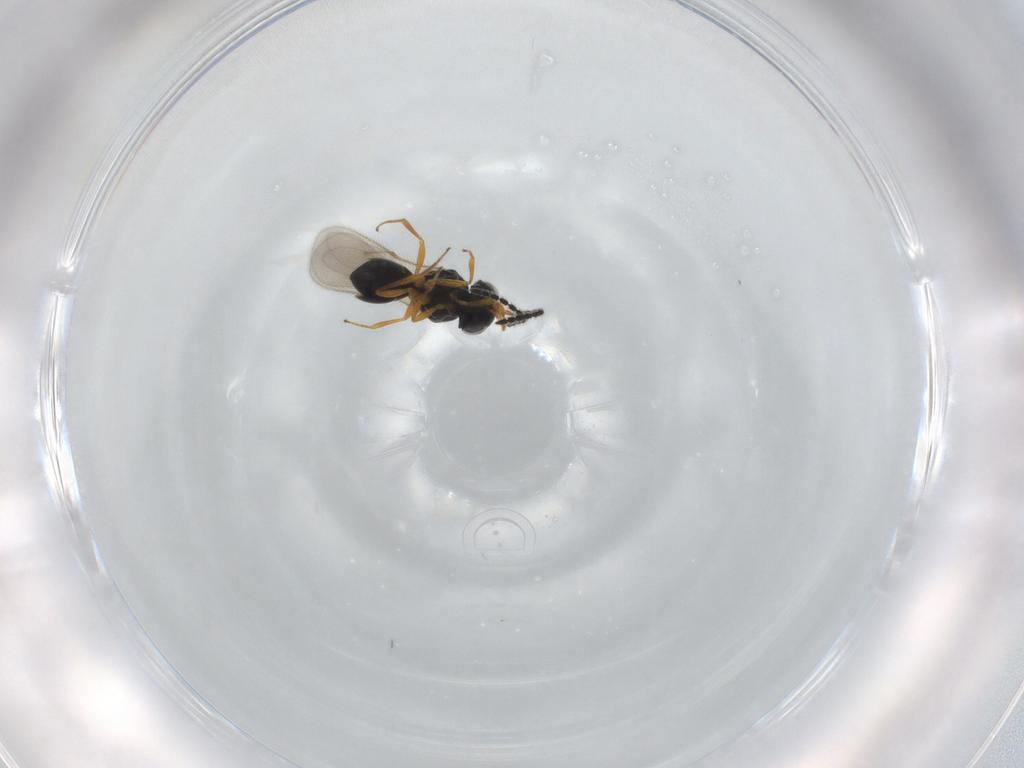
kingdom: Animalia
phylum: Arthropoda
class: Insecta
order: Hymenoptera
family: Scelionidae
